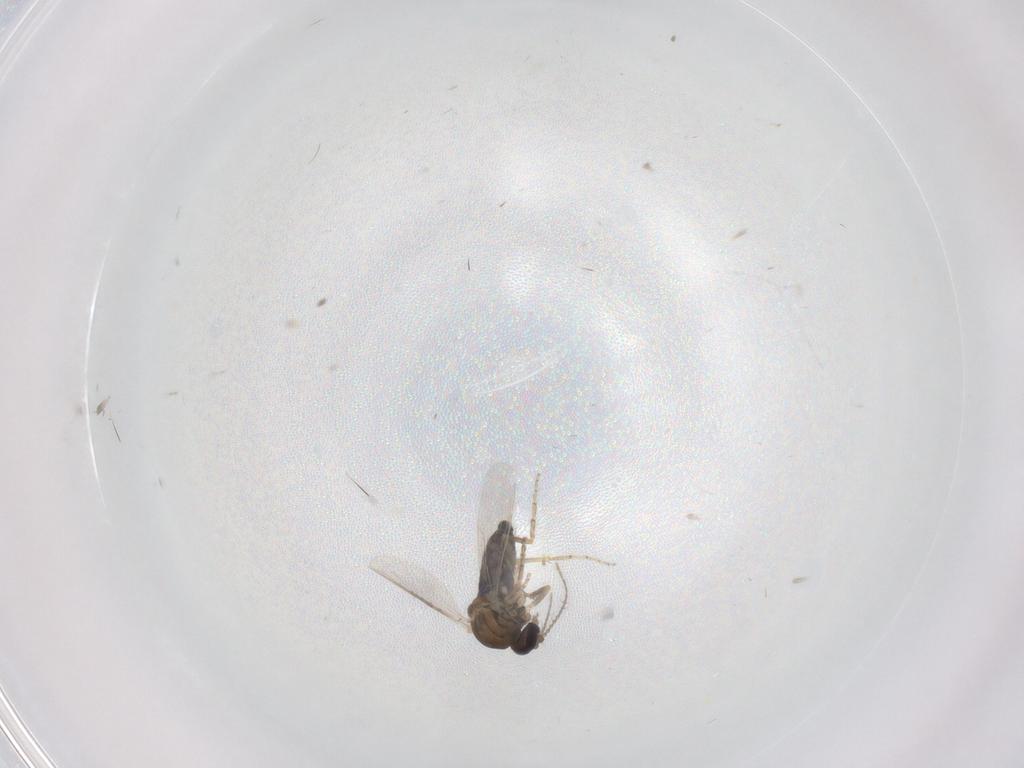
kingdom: Animalia
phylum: Arthropoda
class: Insecta
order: Diptera
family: Ceratopogonidae
